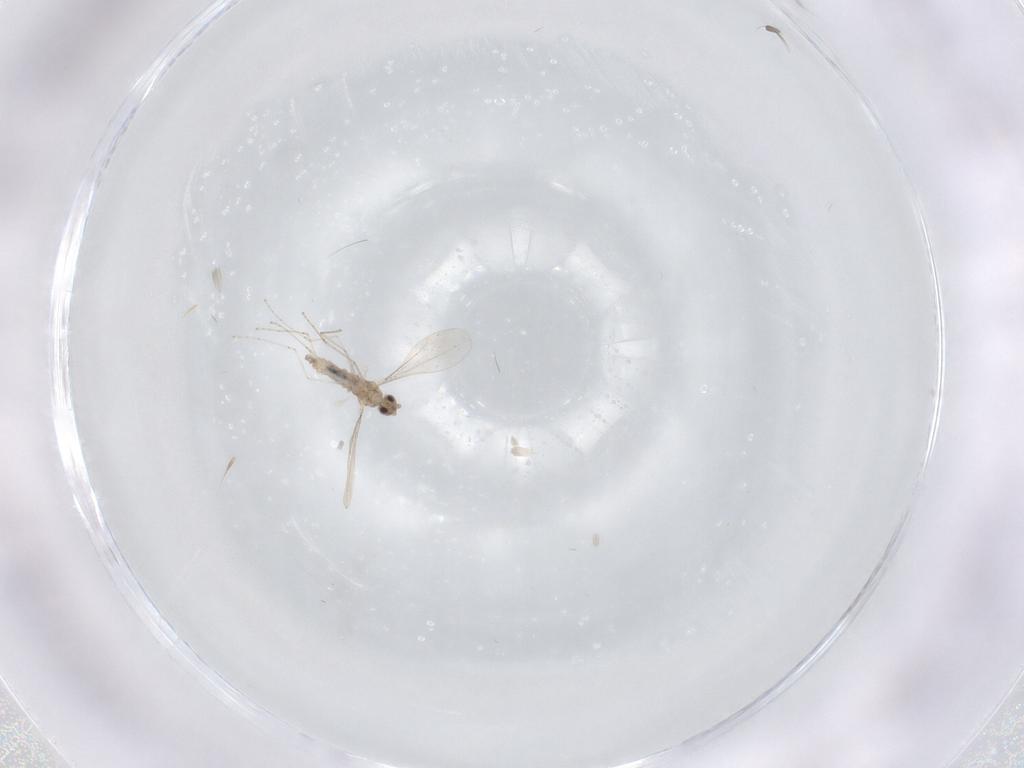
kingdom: Animalia
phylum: Arthropoda
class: Insecta
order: Diptera
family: Cecidomyiidae
